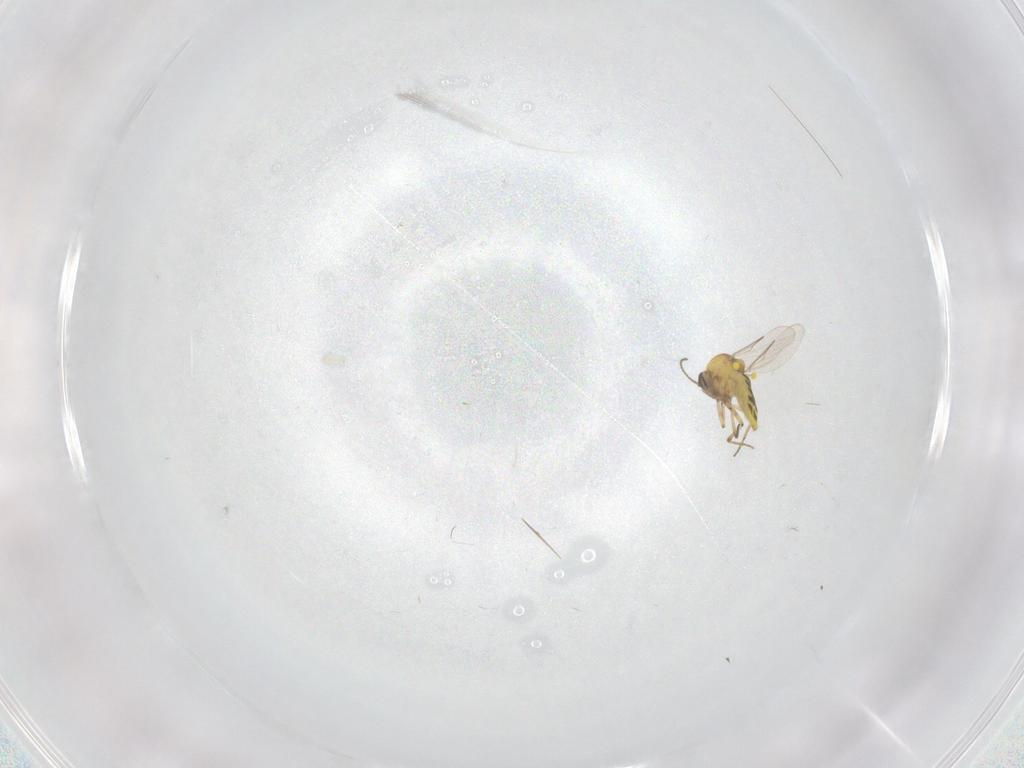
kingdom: Animalia
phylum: Arthropoda
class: Insecta
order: Diptera
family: Ceratopogonidae
